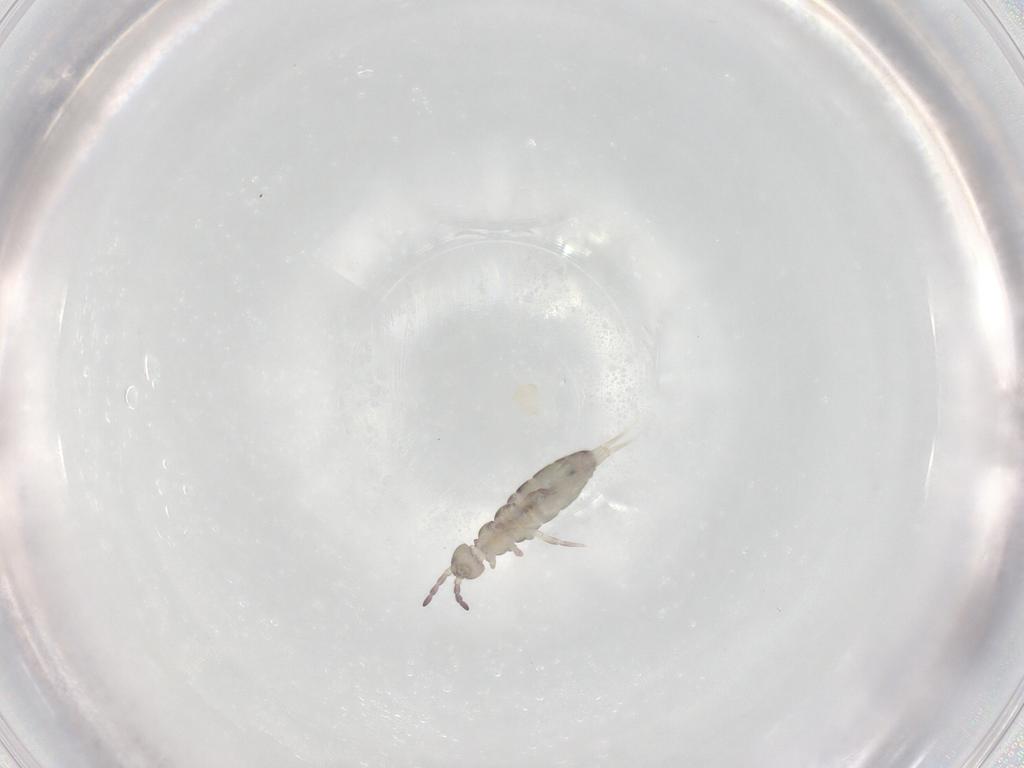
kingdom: Animalia
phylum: Arthropoda
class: Collembola
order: Entomobryomorpha
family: Isotomidae
